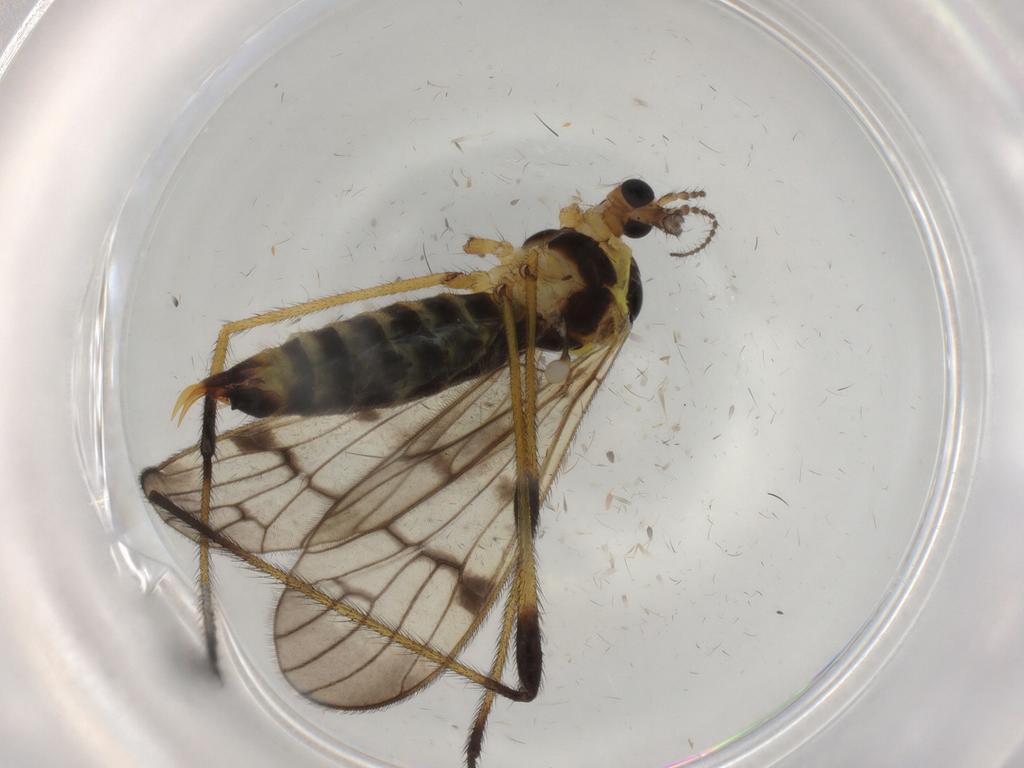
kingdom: Animalia
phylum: Arthropoda
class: Insecta
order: Diptera
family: Limoniidae
